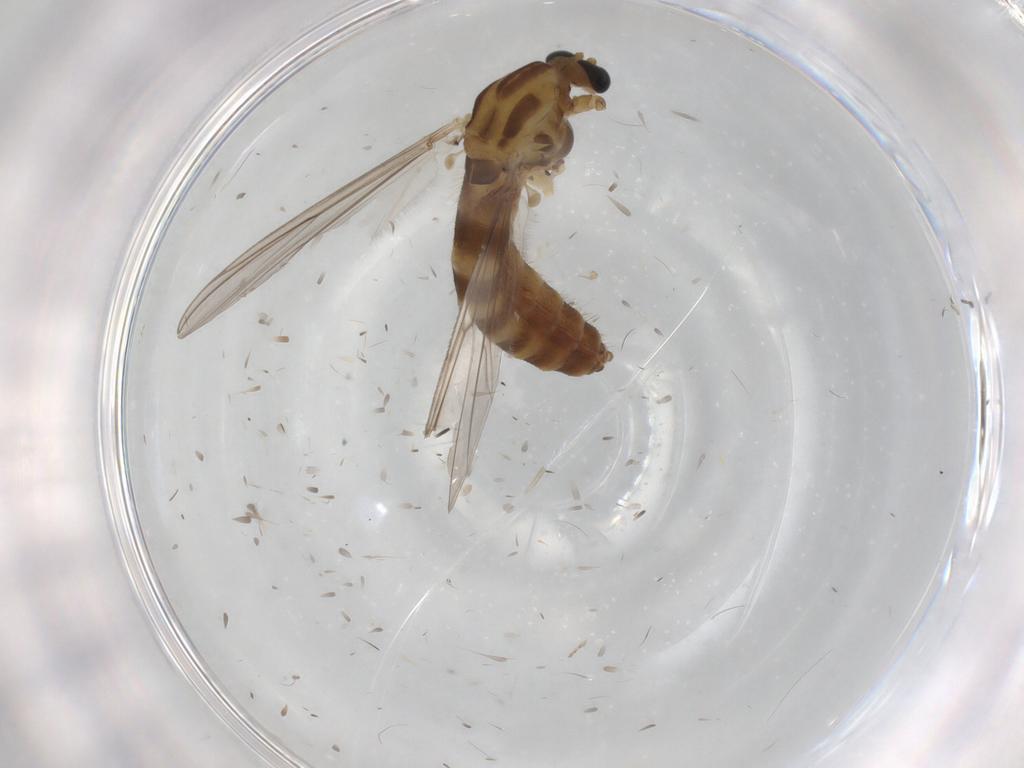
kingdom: Animalia
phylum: Arthropoda
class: Insecta
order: Diptera
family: Chironomidae
